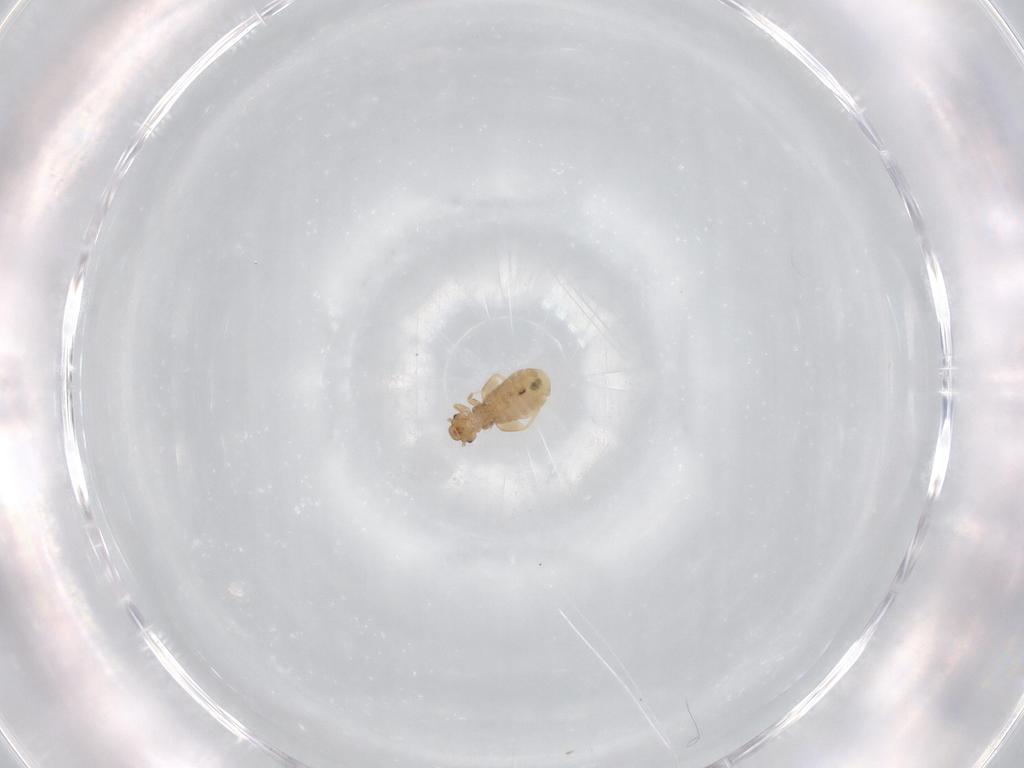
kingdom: Animalia
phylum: Arthropoda
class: Insecta
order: Psocodea
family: Liposcelididae
